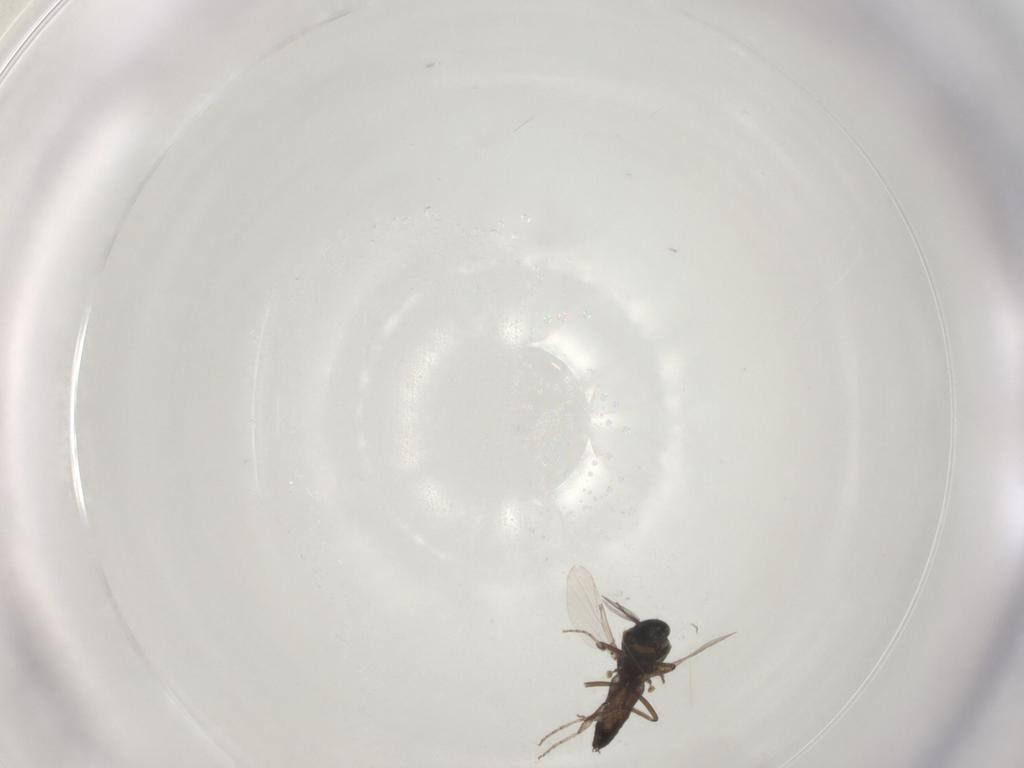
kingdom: Animalia
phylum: Arthropoda
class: Insecta
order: Diptera
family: Ceratopogonidae
